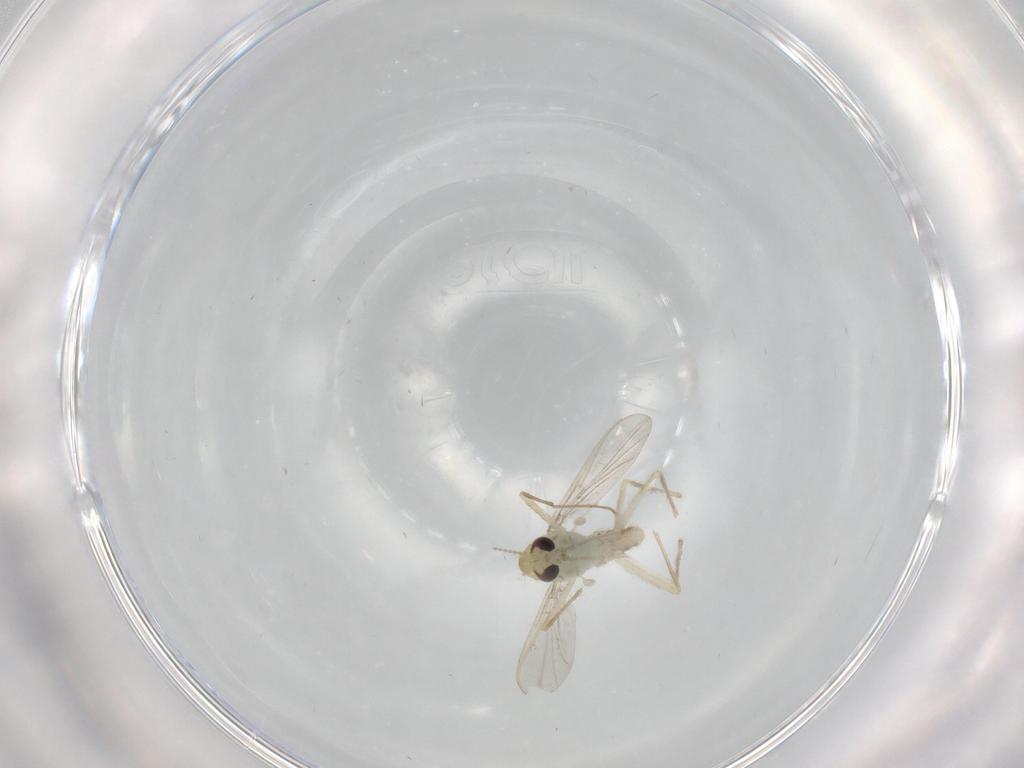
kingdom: Animalia
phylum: Arthropoda
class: Insecta
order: Diptera
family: Chironomidae
